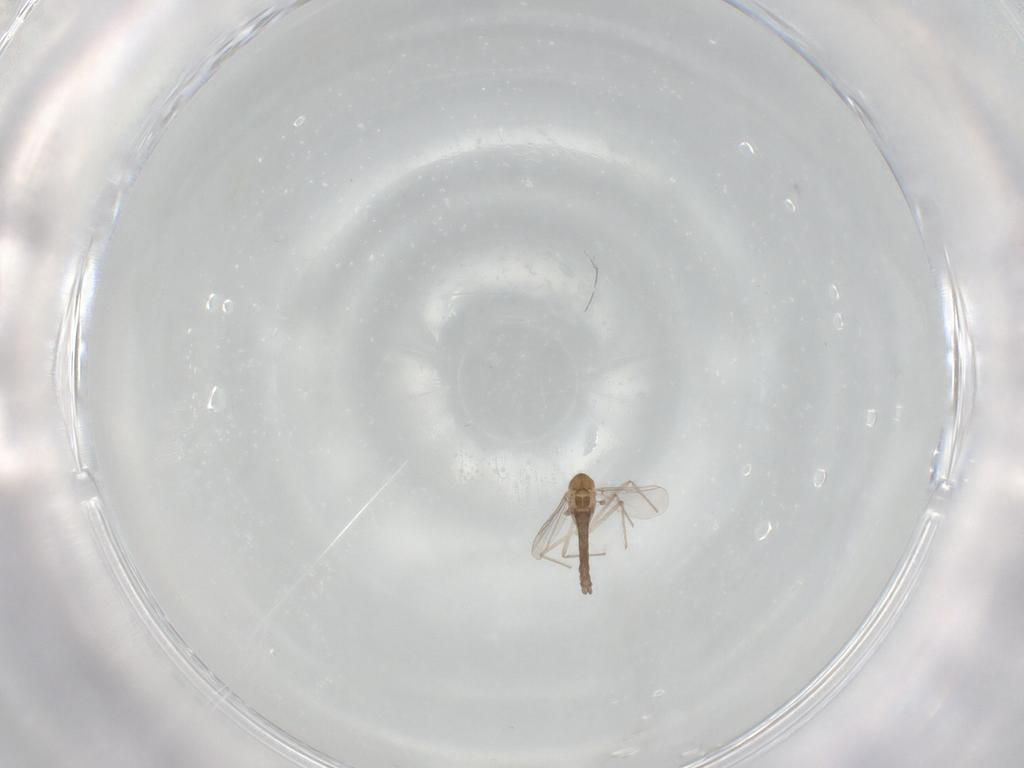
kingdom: Animalia
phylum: Arthropoda
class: Insecta
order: Diptera
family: Chironomidae
